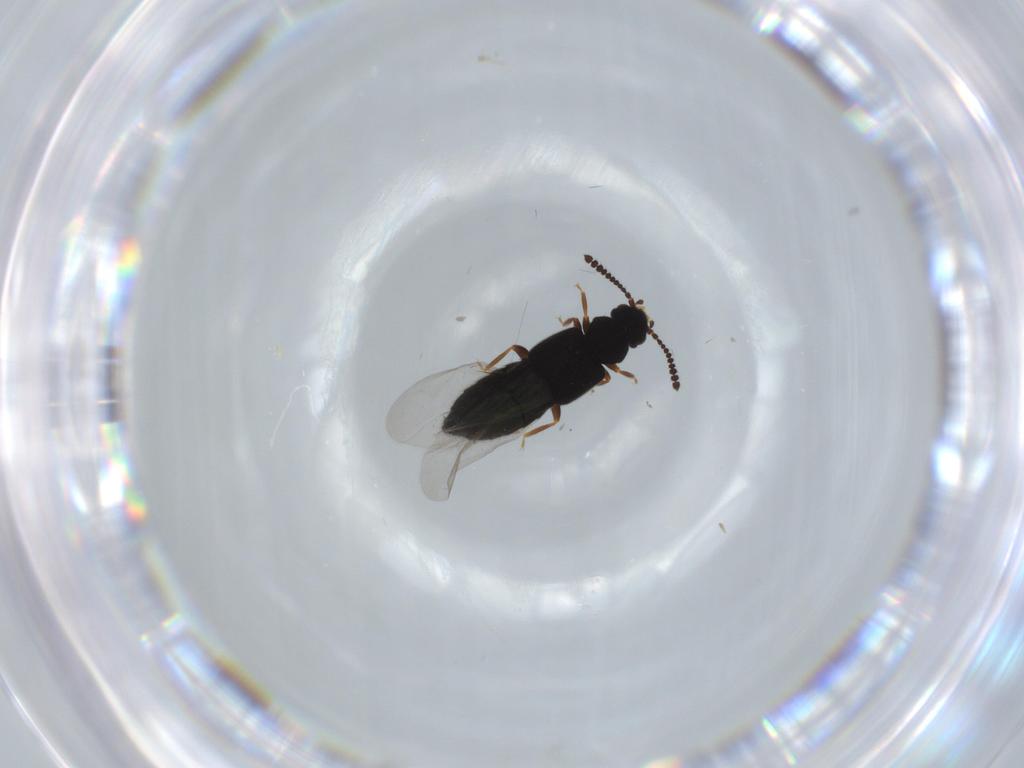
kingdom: Animalia
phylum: Arthropoda
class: Insecta
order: Coleoptera
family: Staphylinidae
